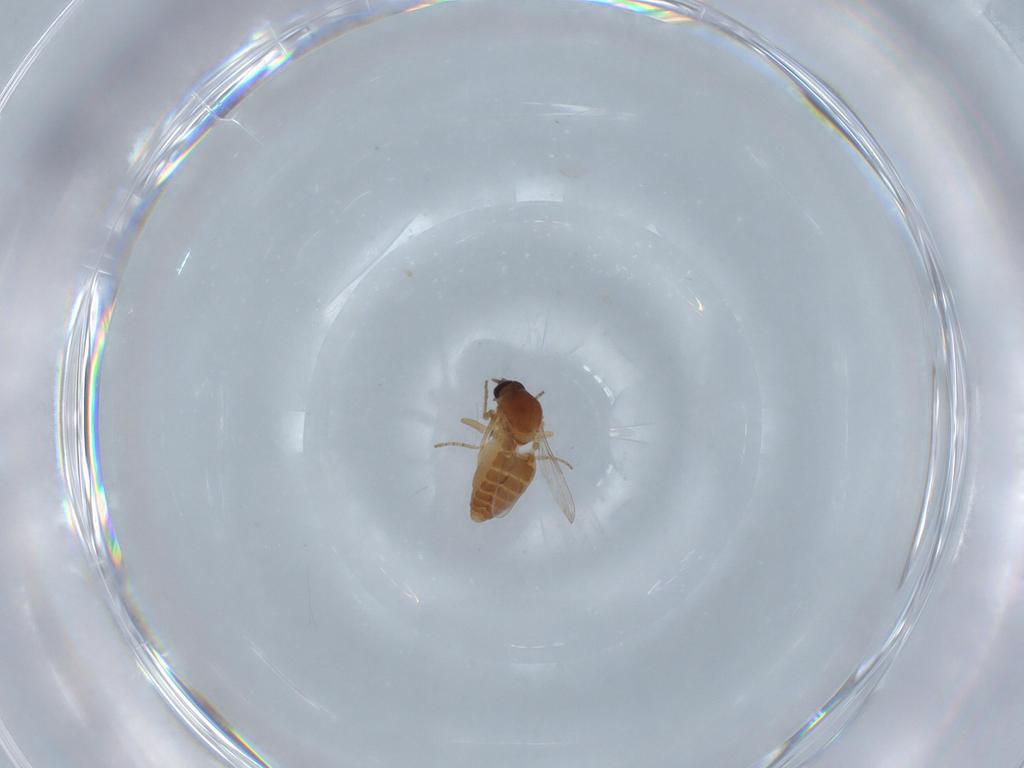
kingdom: Animalia
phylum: Arthropoda
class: Insecta
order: Diptera
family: Ceratopogonidae
